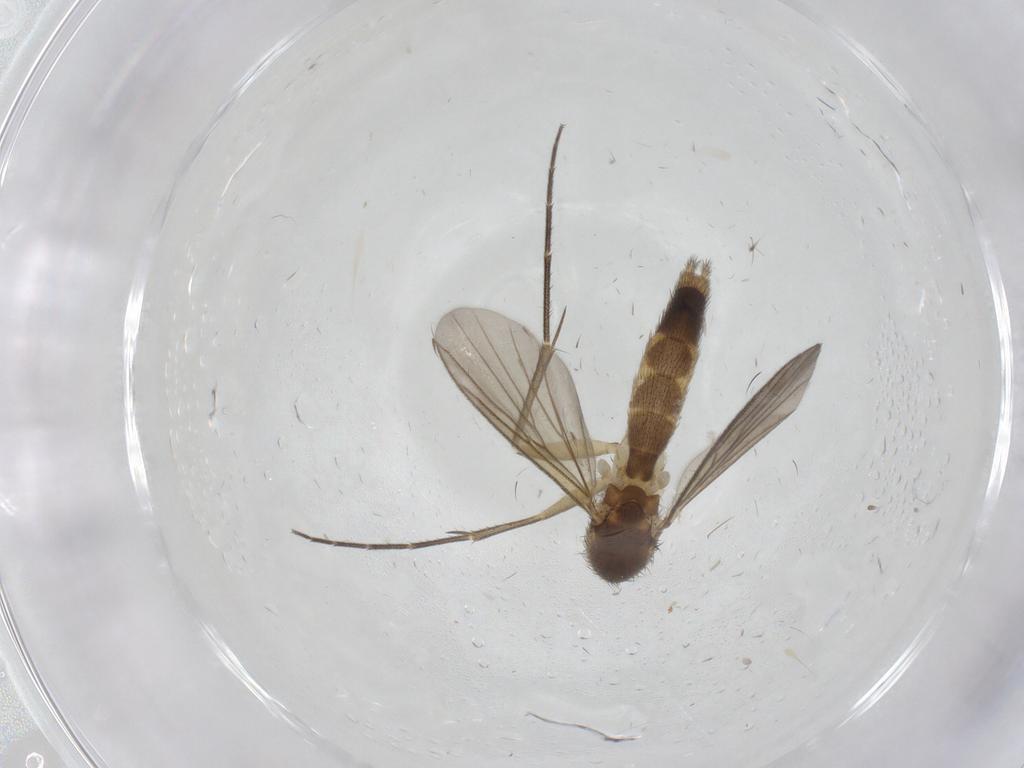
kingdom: Animalia
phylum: Arthropoda
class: Insecta
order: Diptera
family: Mycetophilidae
